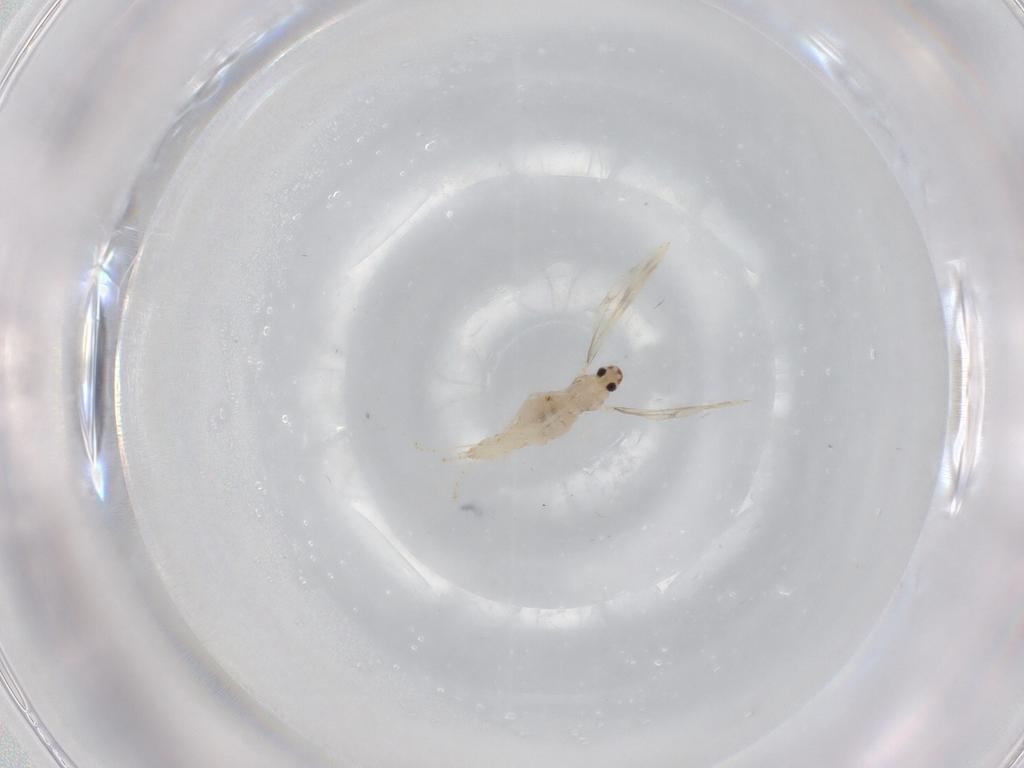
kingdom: Animalia
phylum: Arthropoda
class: Insecta
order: Diptera
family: Cecidomyiidae
